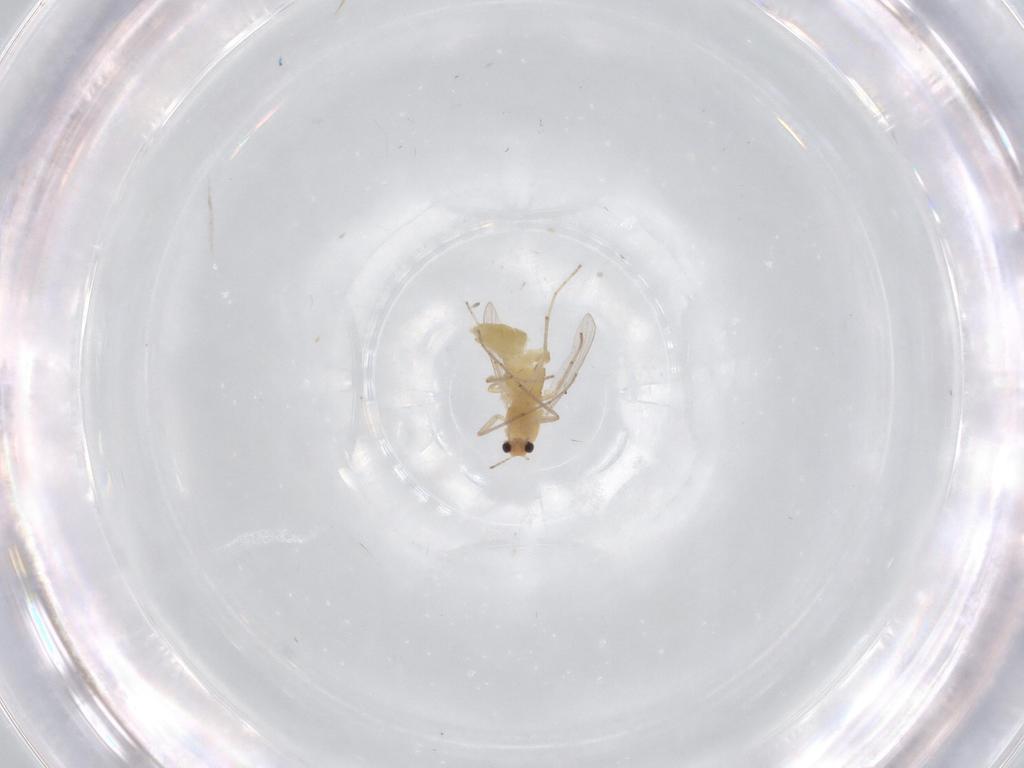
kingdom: Animalia
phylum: Arthropoda
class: Insecta
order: Diptera
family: Chironomidae
